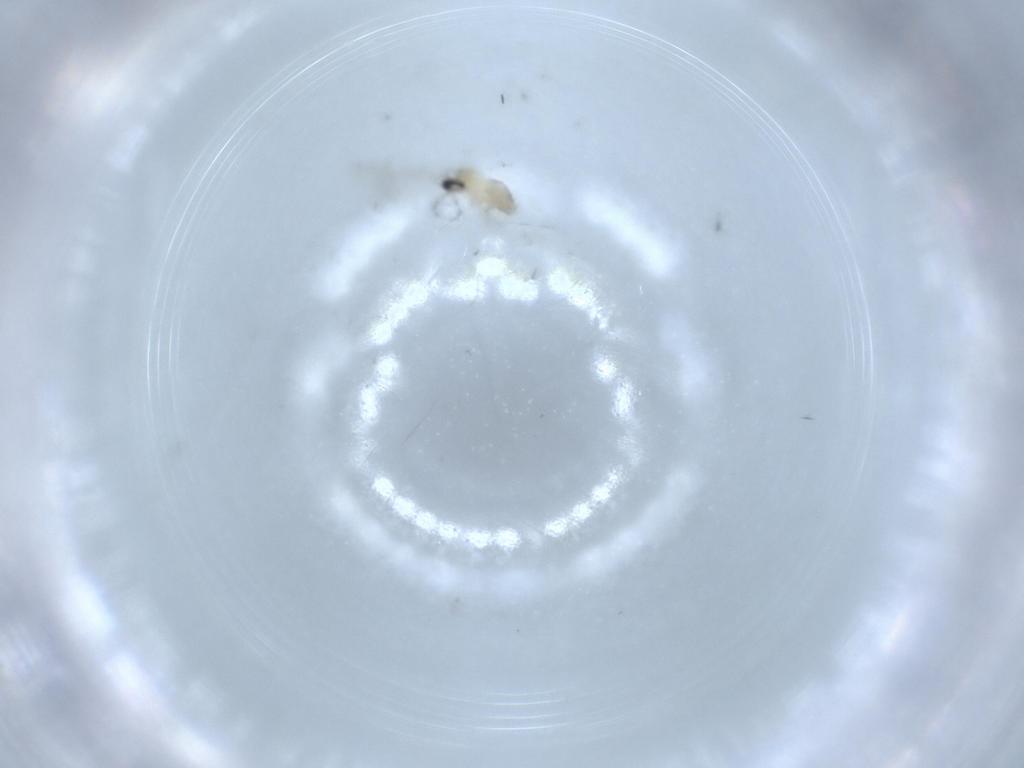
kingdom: Animalia
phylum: Arthropoda
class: Insecta
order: Diptera
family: Cecidomyiidae
